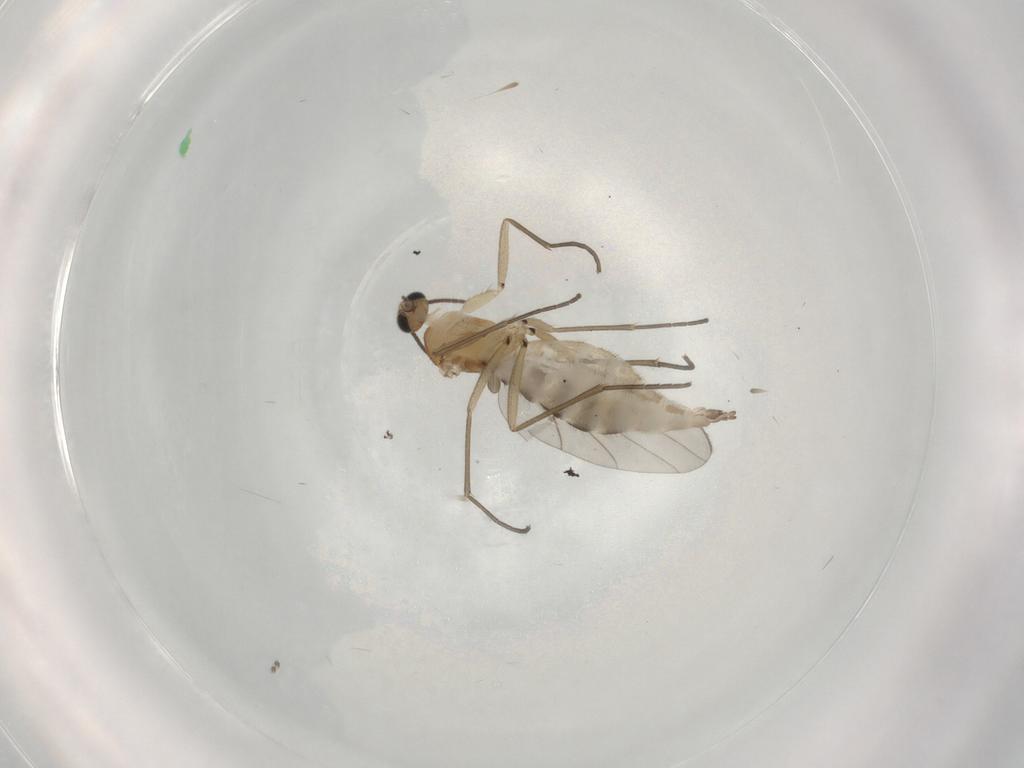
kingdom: Animalia
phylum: Arthropoda
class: Insecta
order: Diptera
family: Sciaridae
